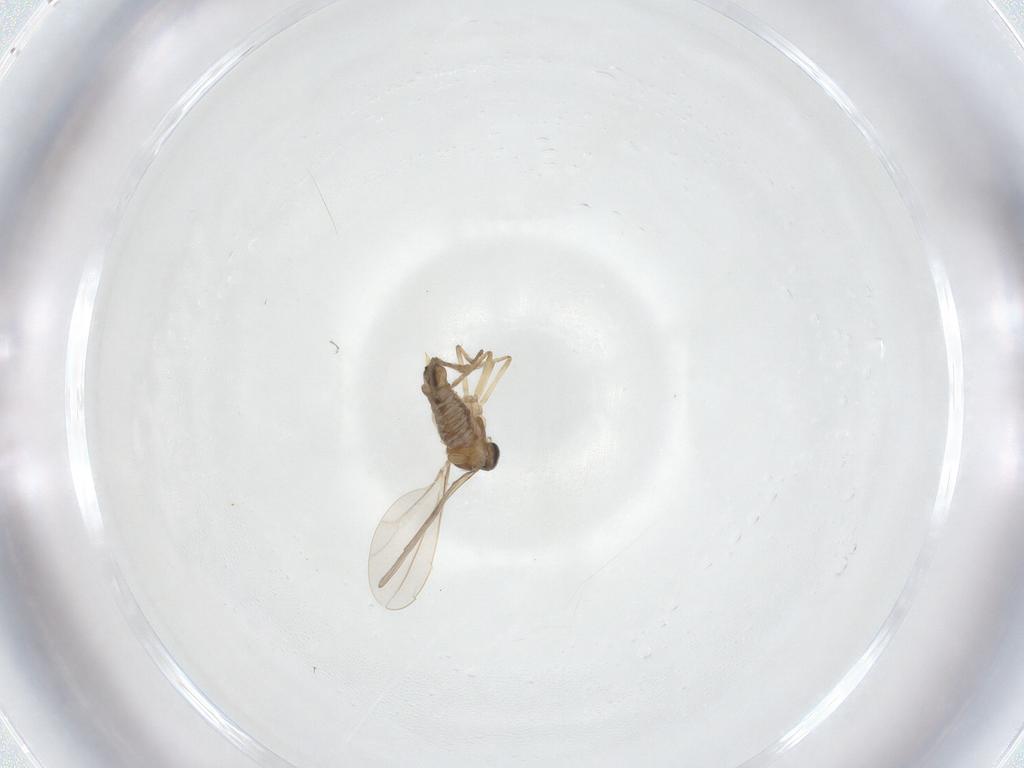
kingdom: Animalia
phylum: Arthropoda
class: Insecta
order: Diptera
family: Cecidomyiidae
